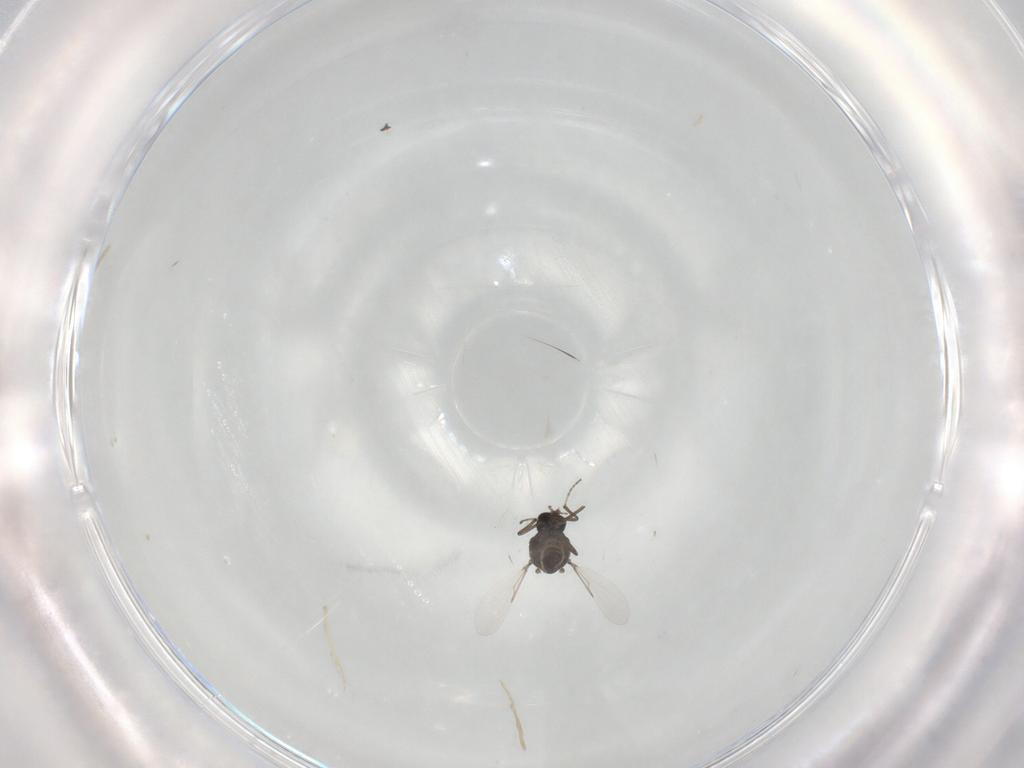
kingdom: Animalia
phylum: Arthropoda
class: Insecta
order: Diptera
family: Ceratopogonidae
